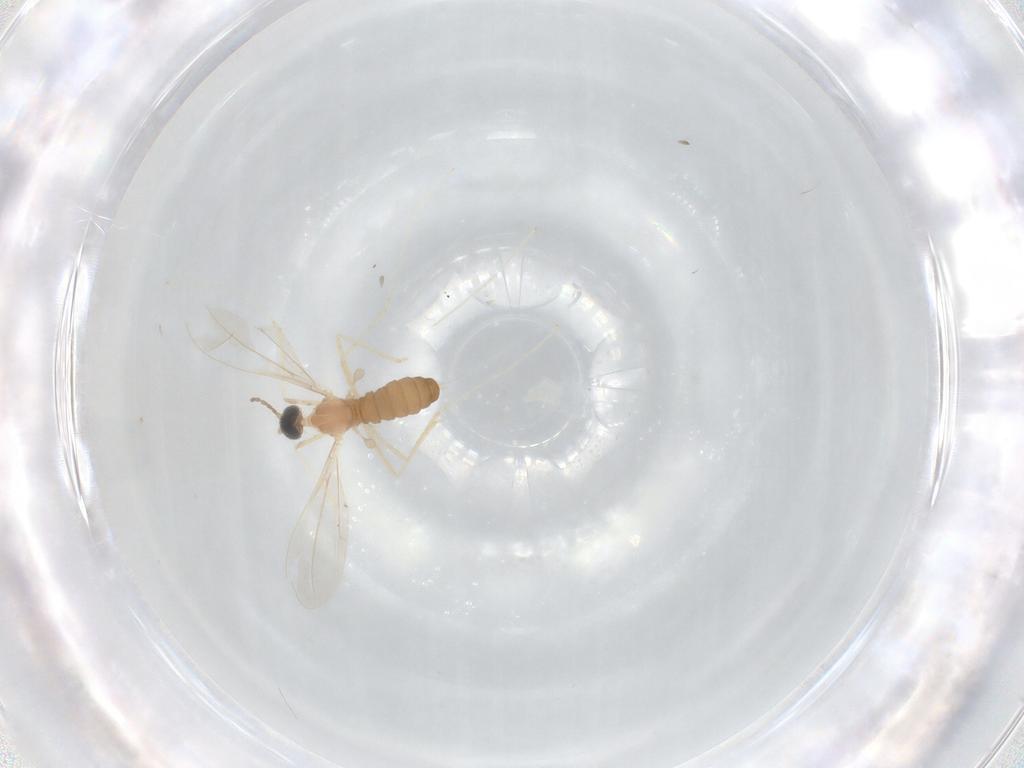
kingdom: Animalia
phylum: Arthropoda
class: Insecta
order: Diptera
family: Cecidomyiidae
